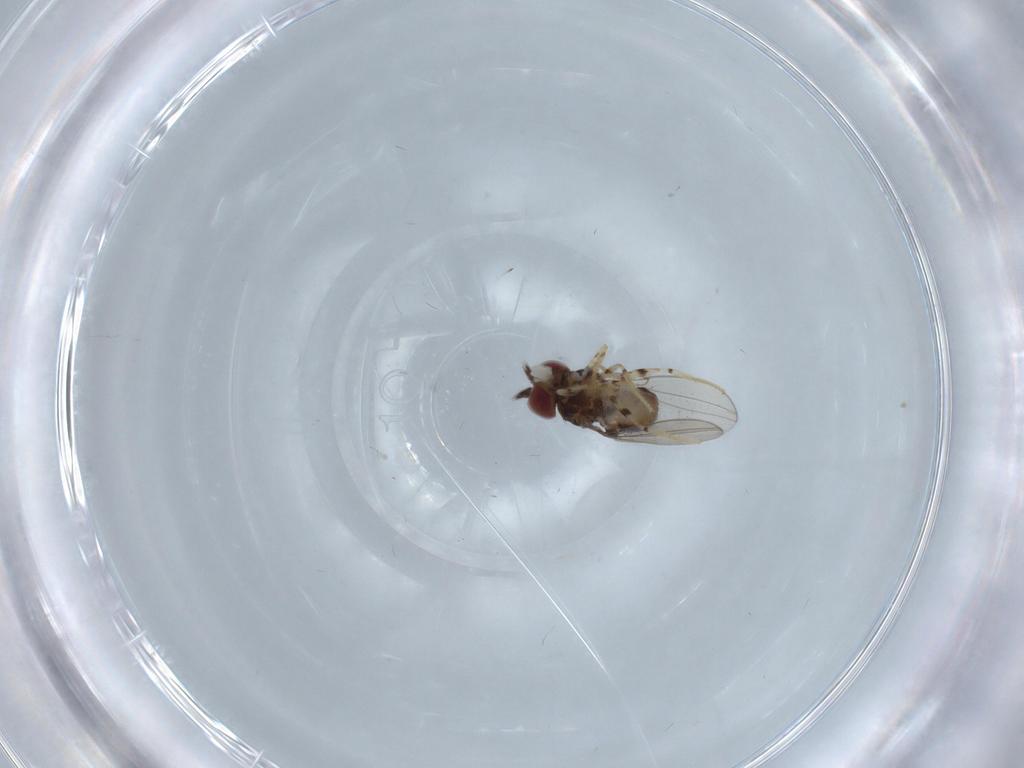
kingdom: Animalia
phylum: Arthropoda
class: Insecta
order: Diptera
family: Asteiidae
